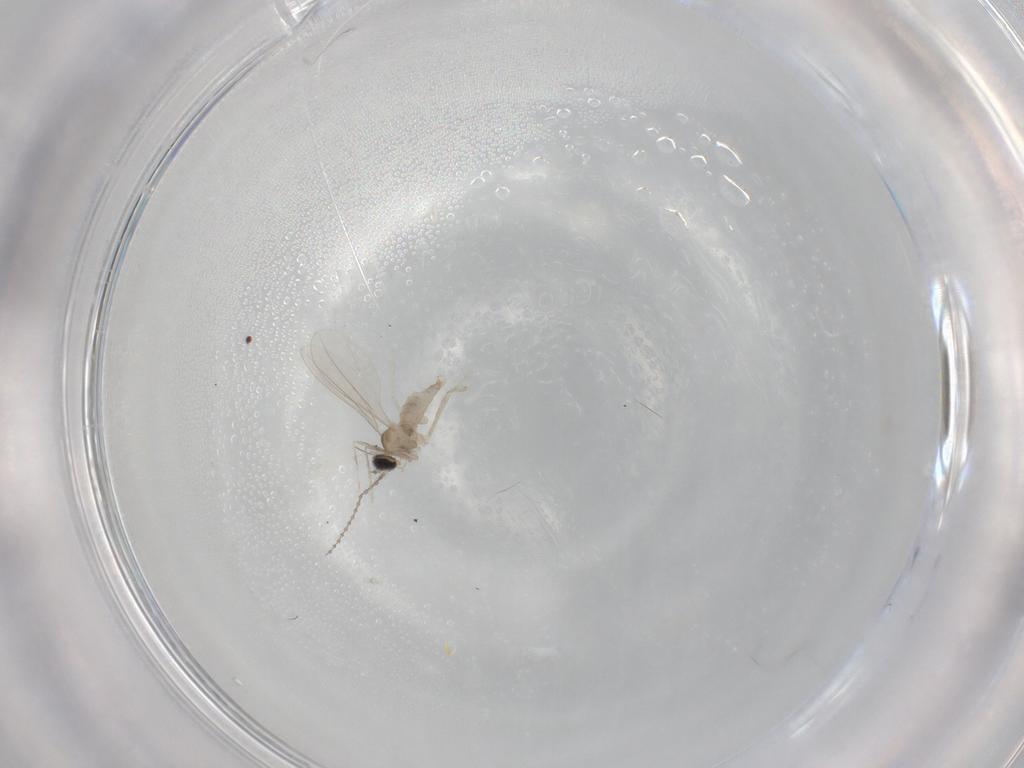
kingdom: Animalia
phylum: Arthropoda
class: Insecta
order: Diptera
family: Cecidomyiidae
